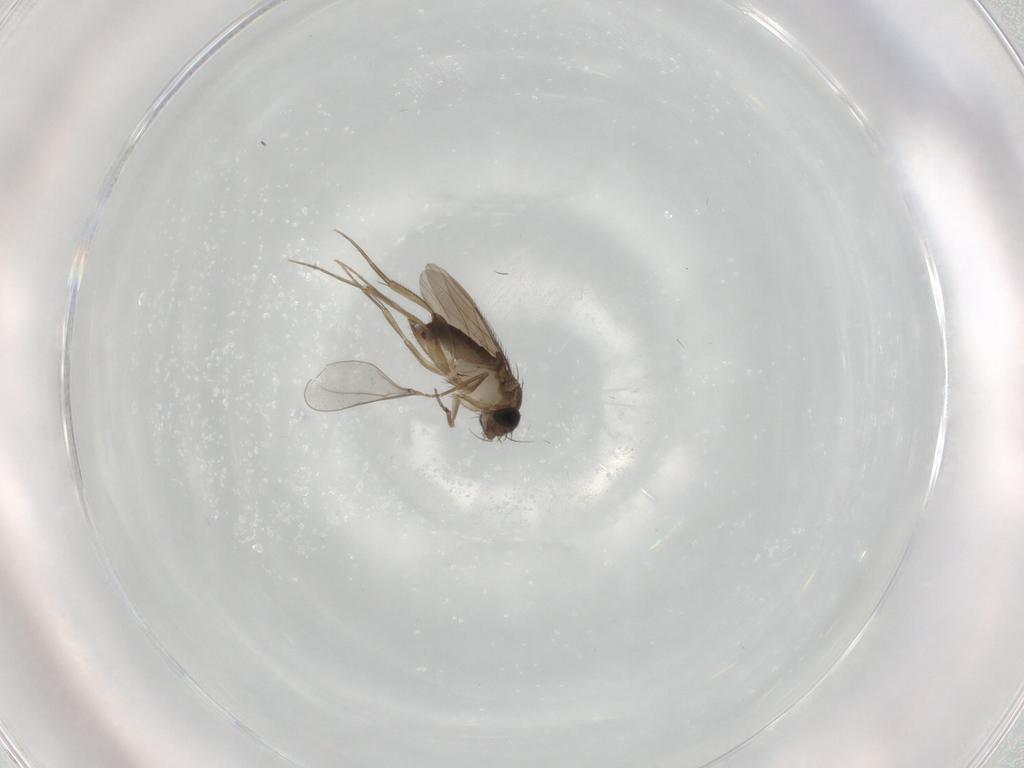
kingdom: Animalia
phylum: Arthropoda
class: Insecta
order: Diptera
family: Phoridae
